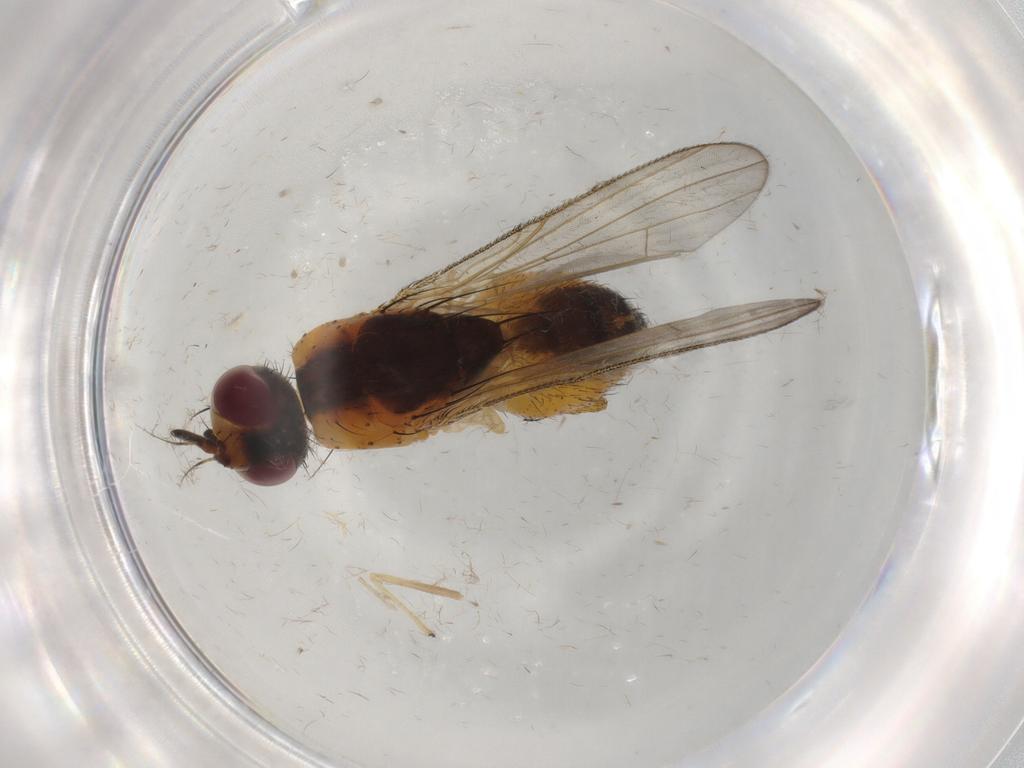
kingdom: Animalia
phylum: Arthropoda
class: Insecta
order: Diptera
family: Muscidae
